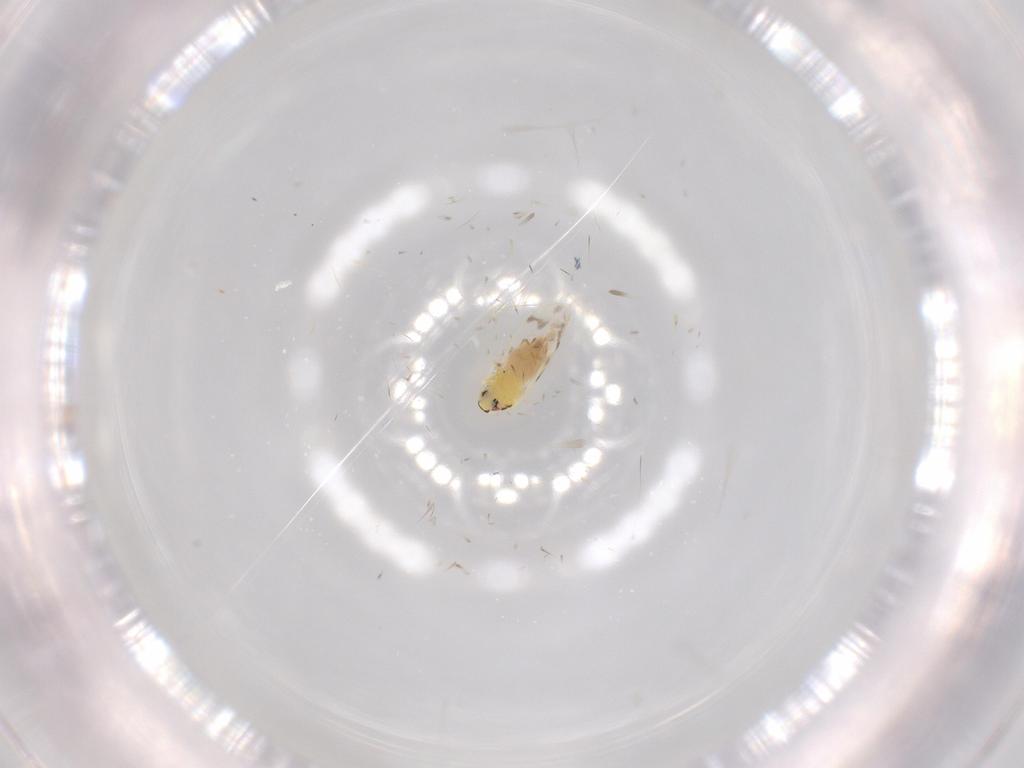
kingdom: Animalia
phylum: Arthropoda
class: Insecta
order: Hemiptera
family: Aleyrodidae
